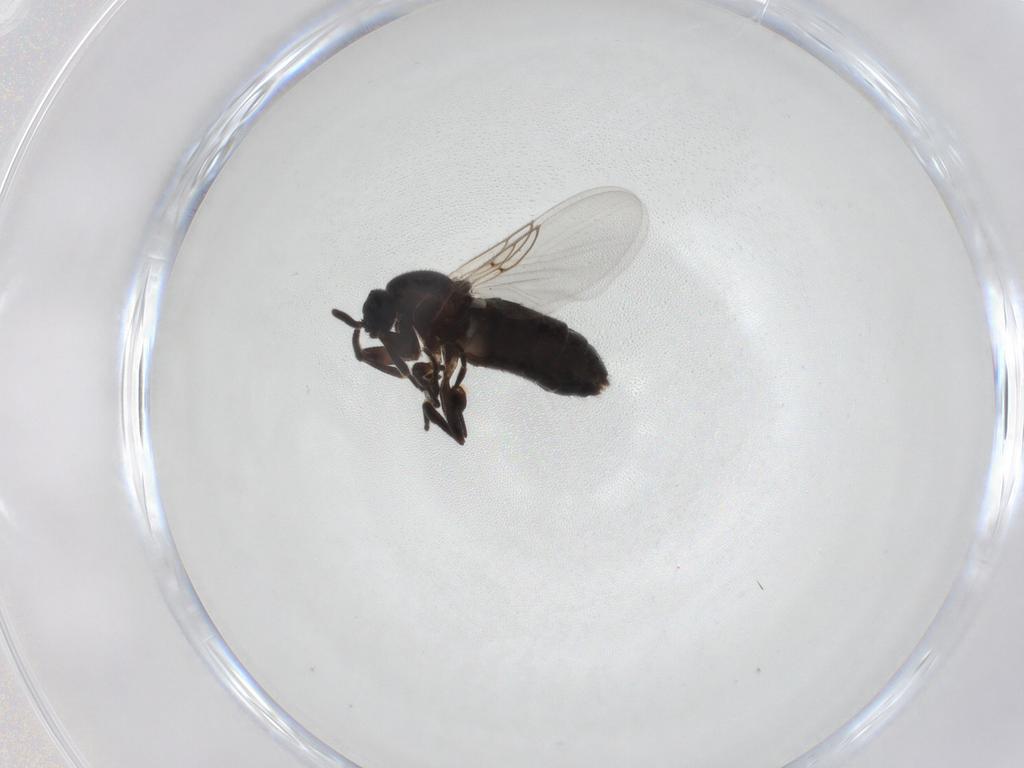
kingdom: Animalia
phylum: Arthropoda
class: Insecta
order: Diptera
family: Tachinidae
